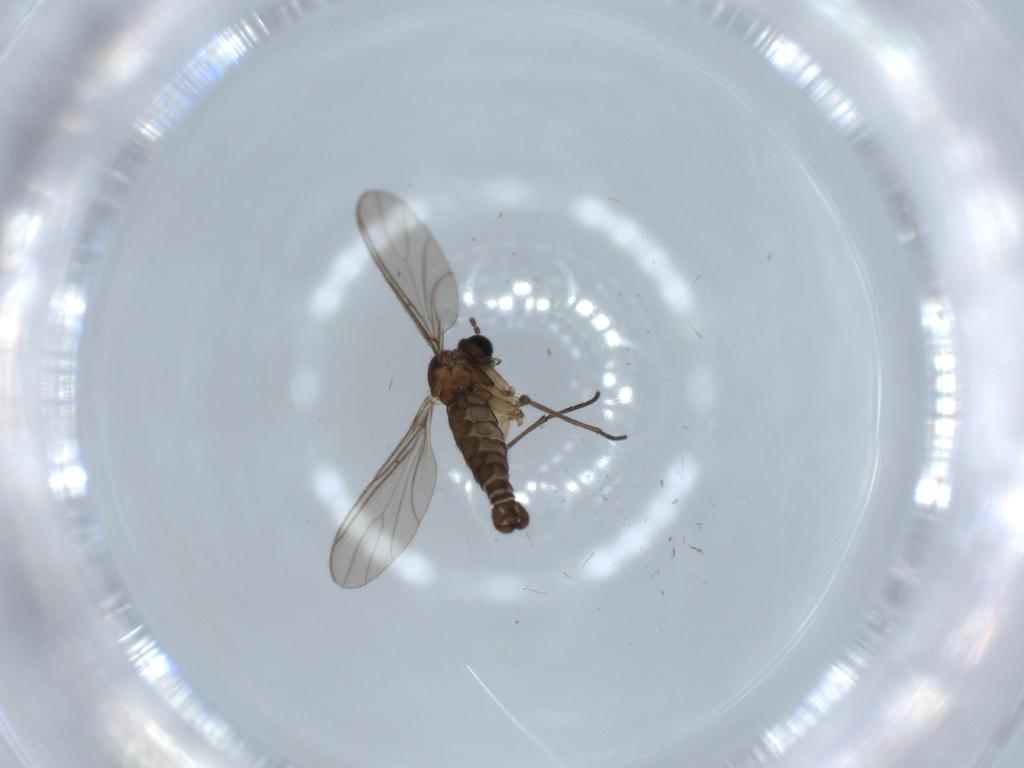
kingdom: Animalia
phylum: Arthropoda
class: Insecta
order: Diptera
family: Sciaridae
